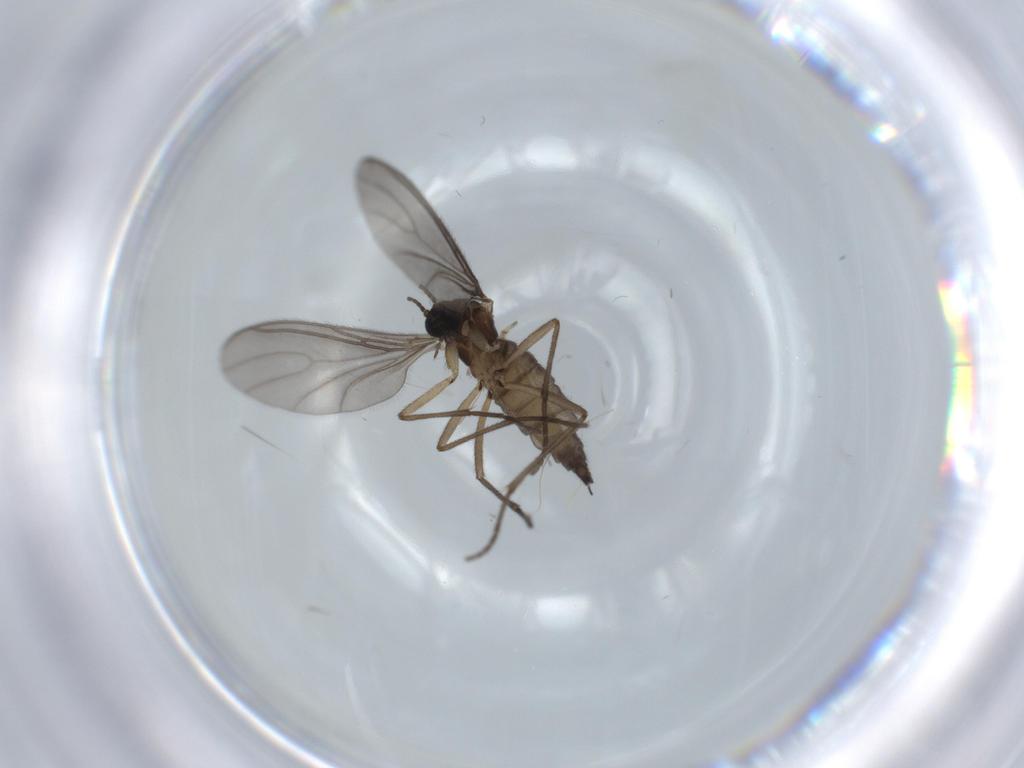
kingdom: Animalia
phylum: Arthropoda
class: Insecta
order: Diptera
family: Sciaridae
